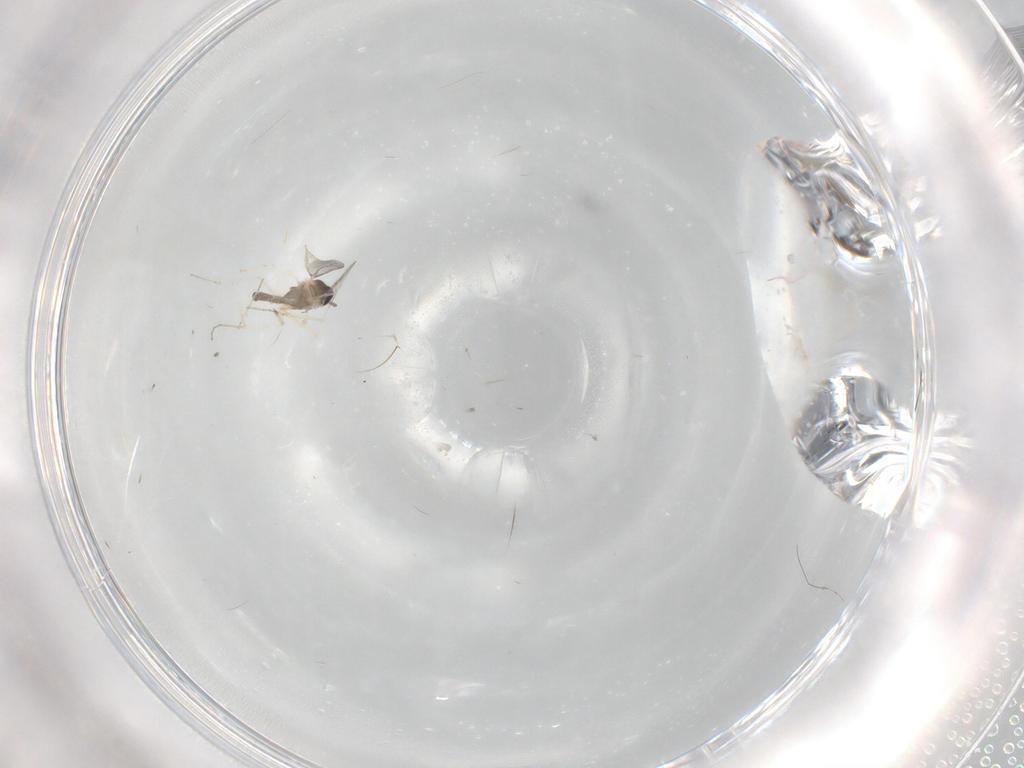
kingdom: Animalia
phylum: Arthropoda
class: Insecta
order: Diptera
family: Cecidomyiidae
